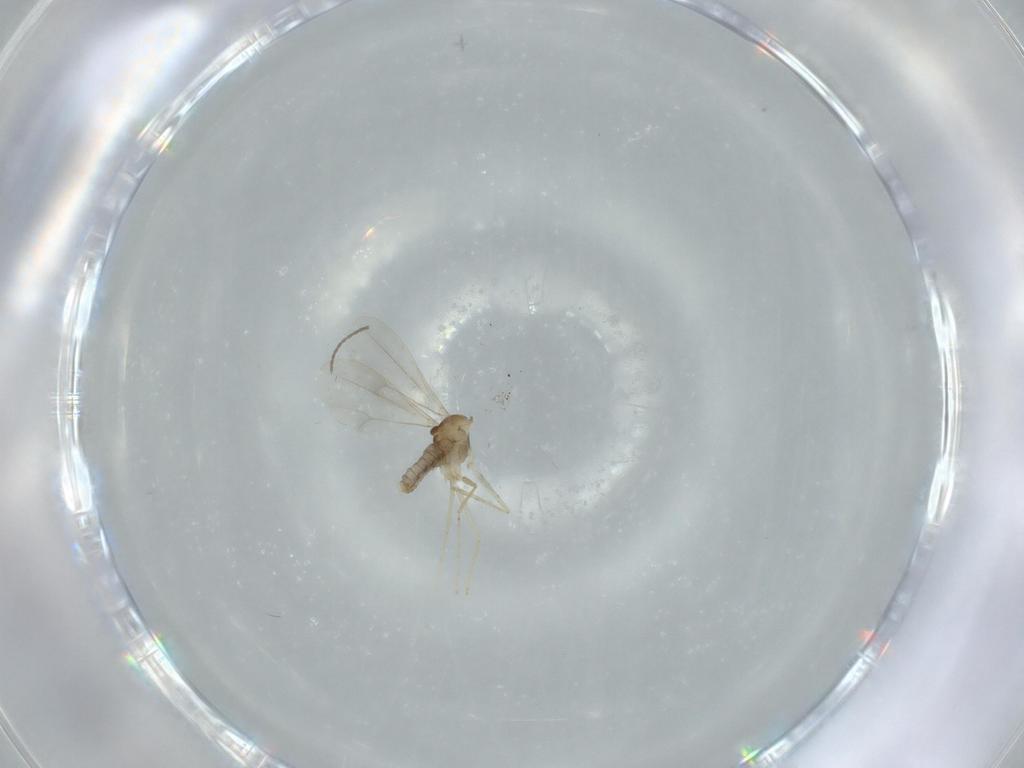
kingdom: Animalia
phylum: Arthropoda
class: Insecta
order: Diptera
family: Cecidomyiidae
